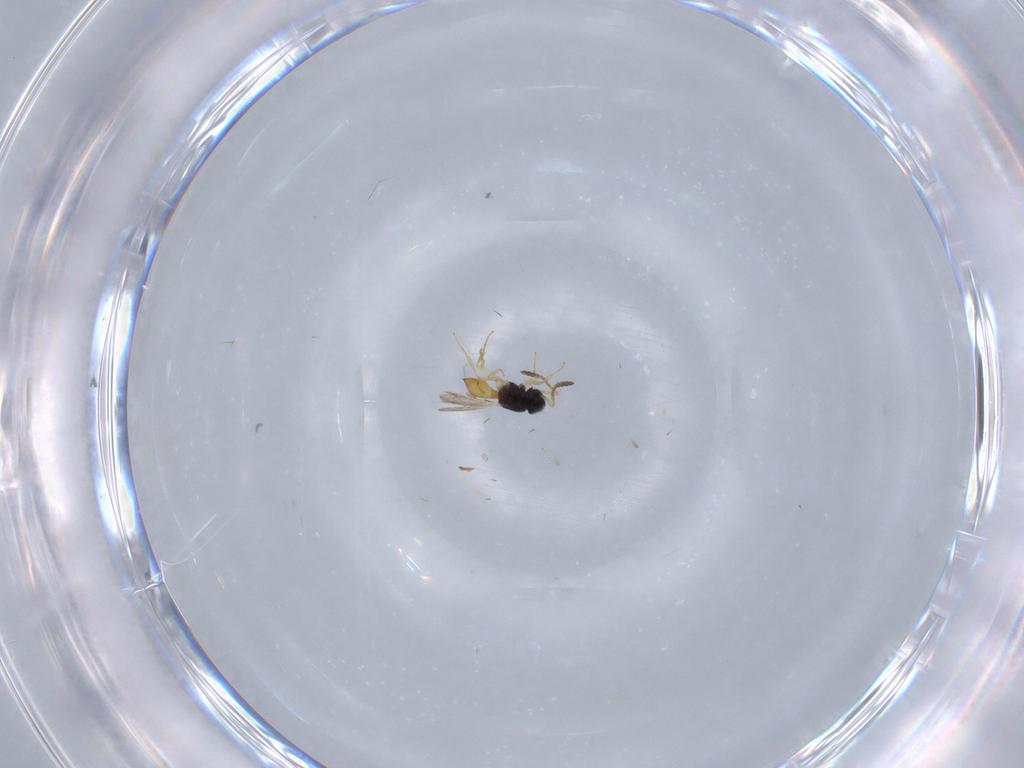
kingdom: Animalia
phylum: Arthropoda
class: Insecta
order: Hymenoptera
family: Scelionidae
